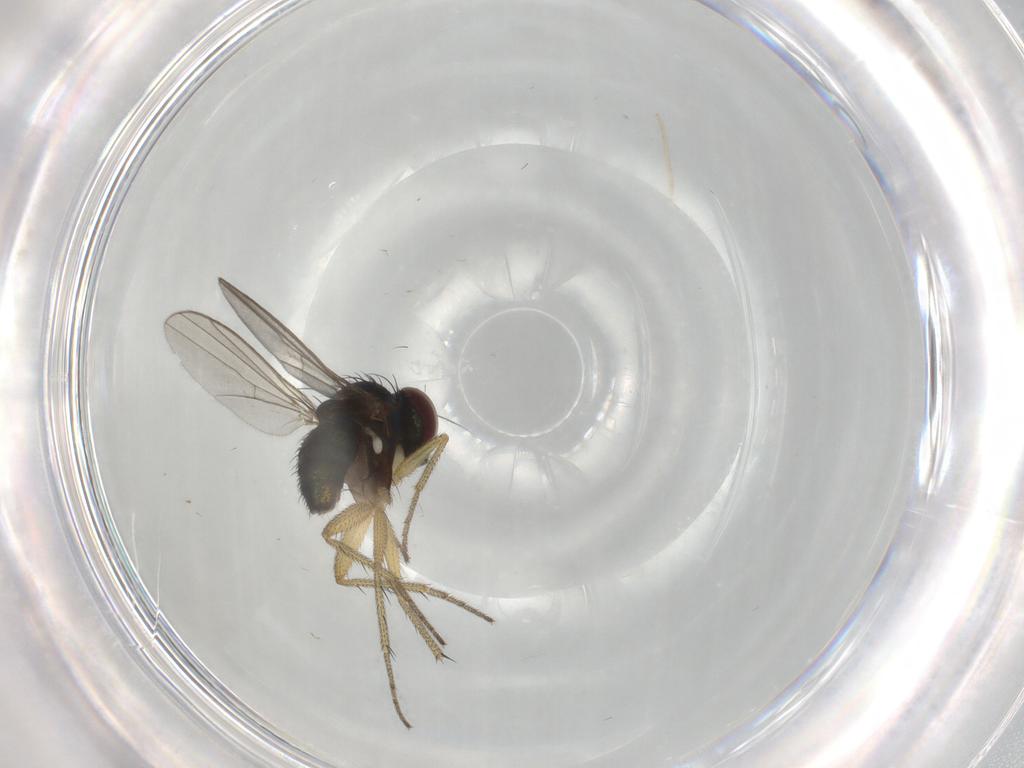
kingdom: Animalia
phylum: Arthropoda
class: Insecta
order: Diptera
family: Dolichopodidae
